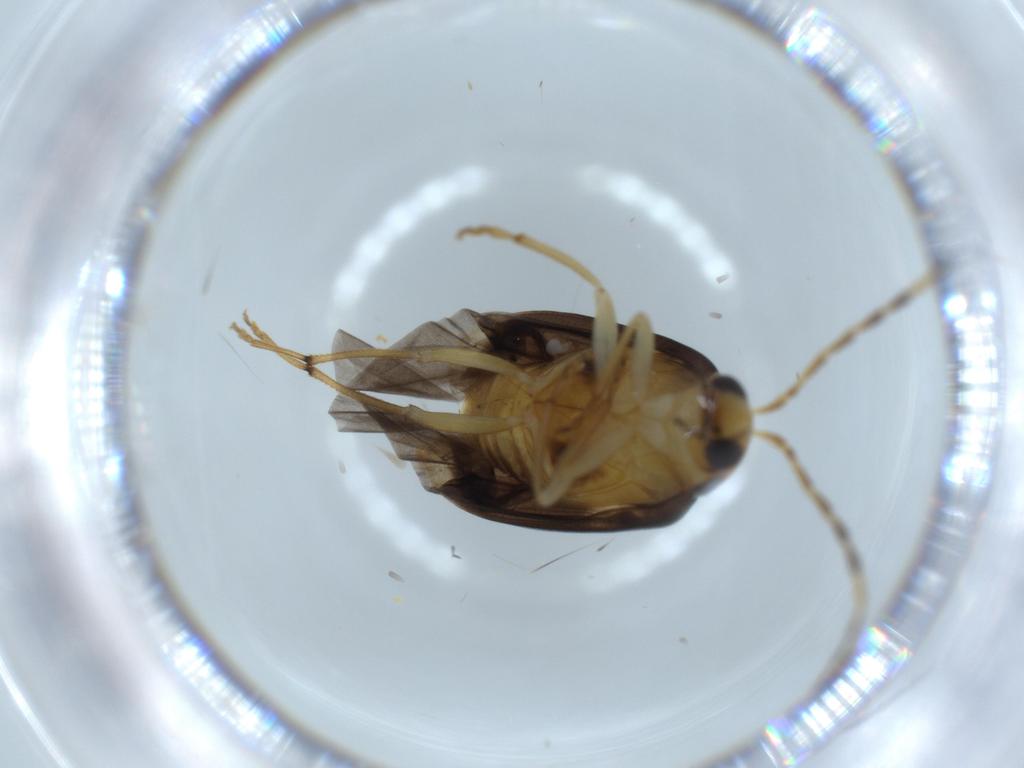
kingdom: Animalia
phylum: Arthropoda
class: Insecta
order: Coleoptera
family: Chrysomelidae
